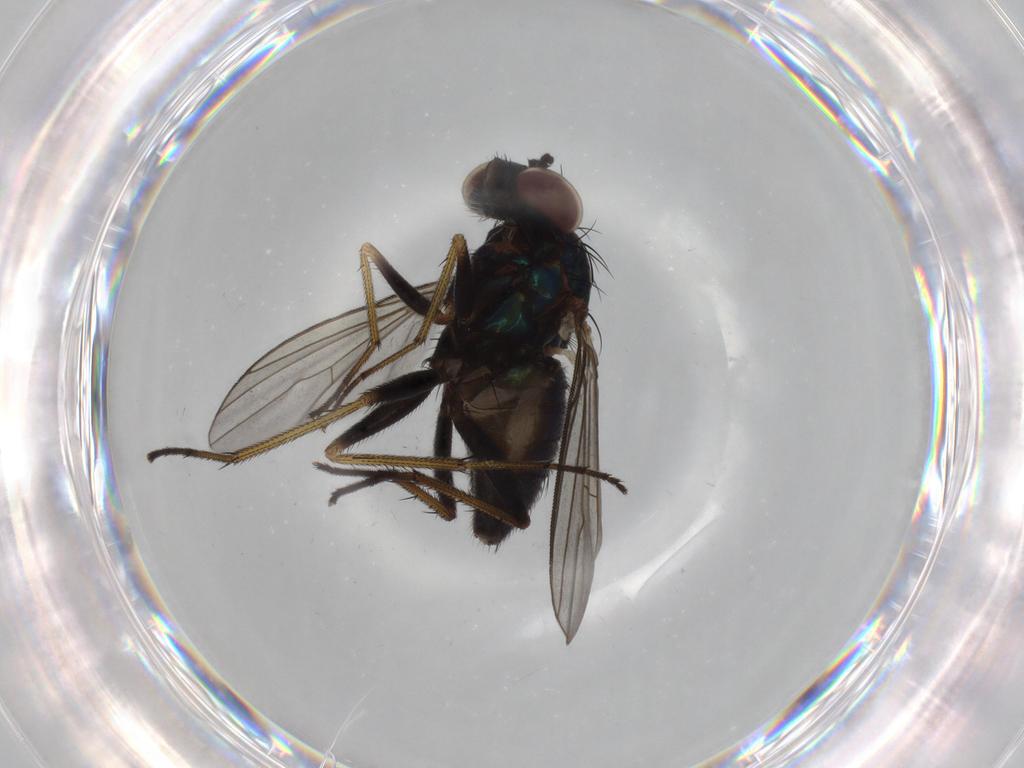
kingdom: Animalia
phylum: Arthropoda
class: Insecta
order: Diptera
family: Dolichopodidae
